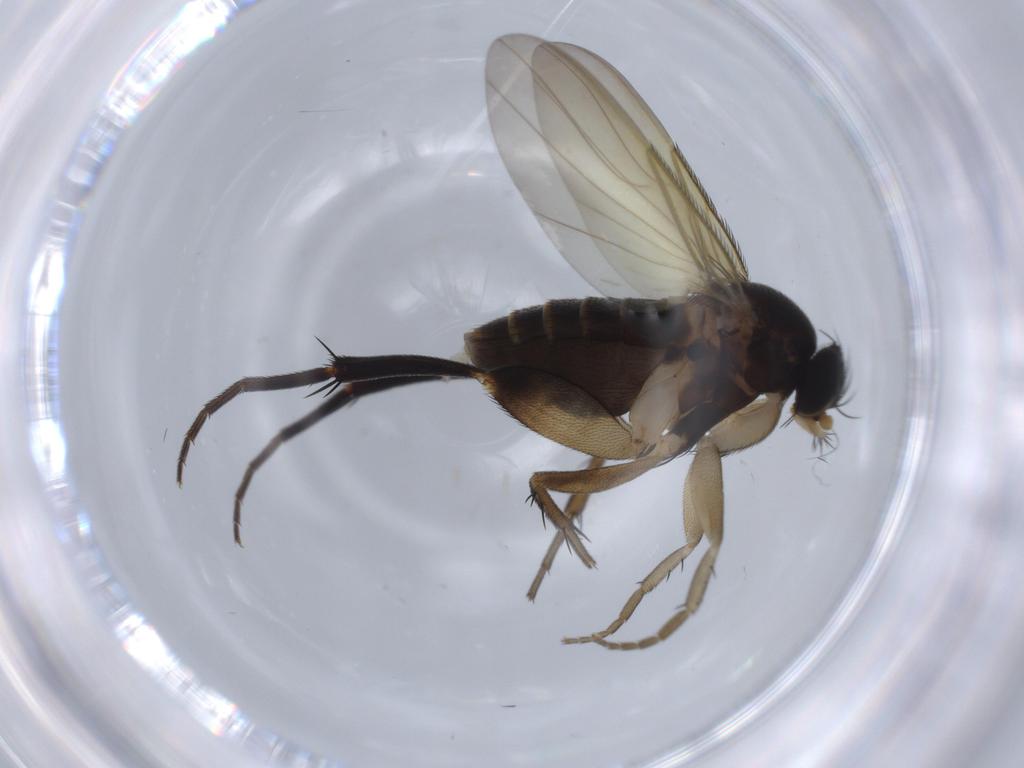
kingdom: Animalia
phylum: Arthropoda
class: Insecta
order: Diptera
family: Phoridae
